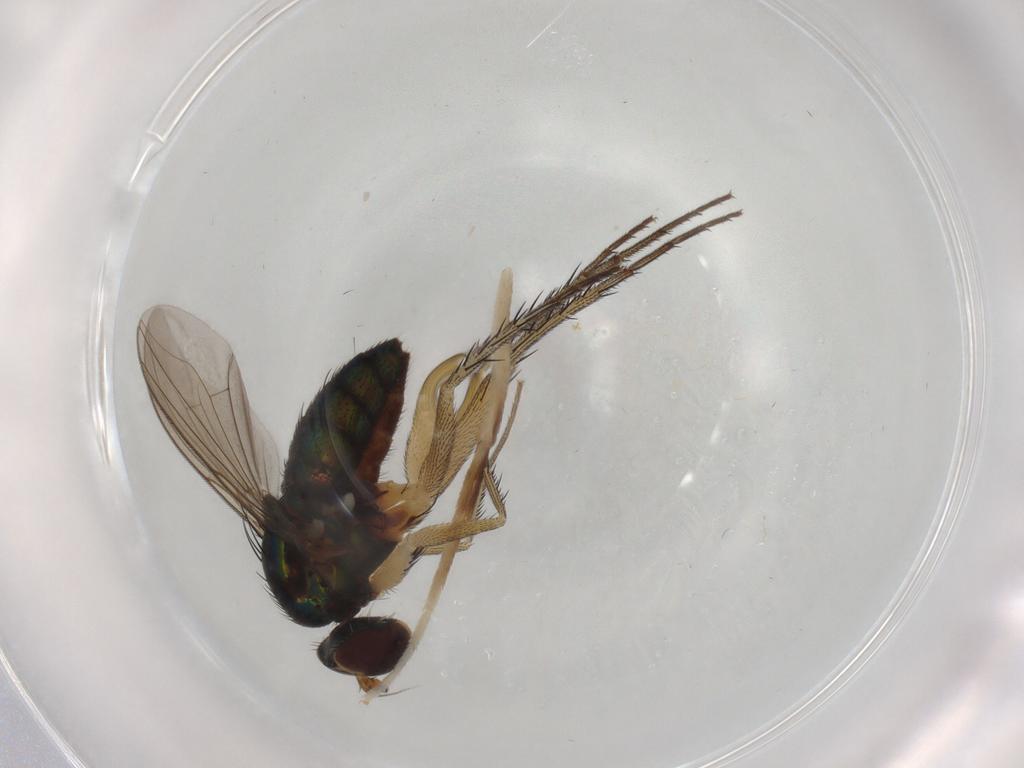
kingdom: Animalia
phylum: Arthropoda
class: Insecta
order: Diptera
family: Dolichopodidae
